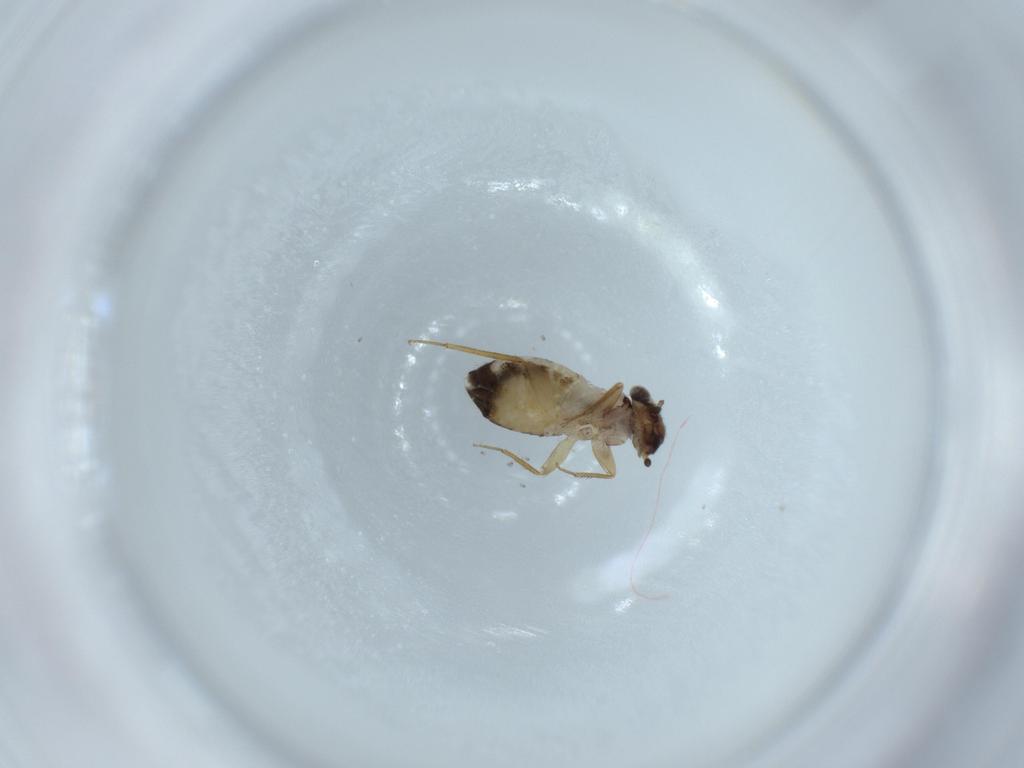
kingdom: Animalia
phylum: Arthropoda
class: Insecta
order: Psocodea
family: Lepidopsocidae
